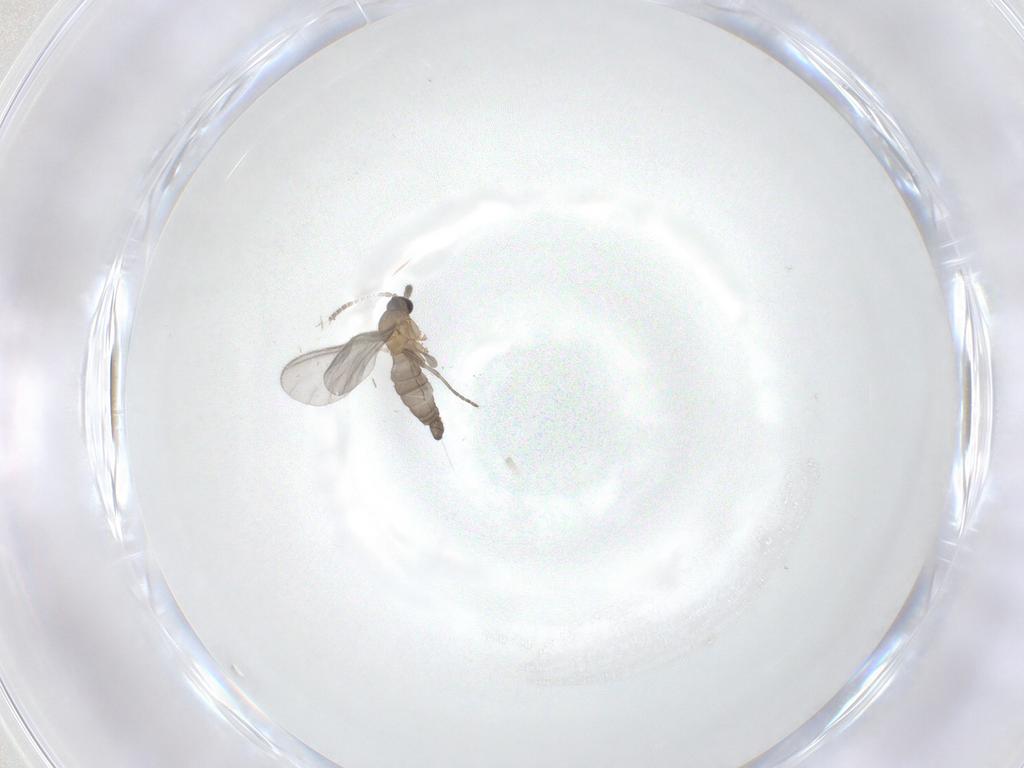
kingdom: Animalia
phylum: Arthropoda
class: Insecta
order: Diptera
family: Sciaridae
